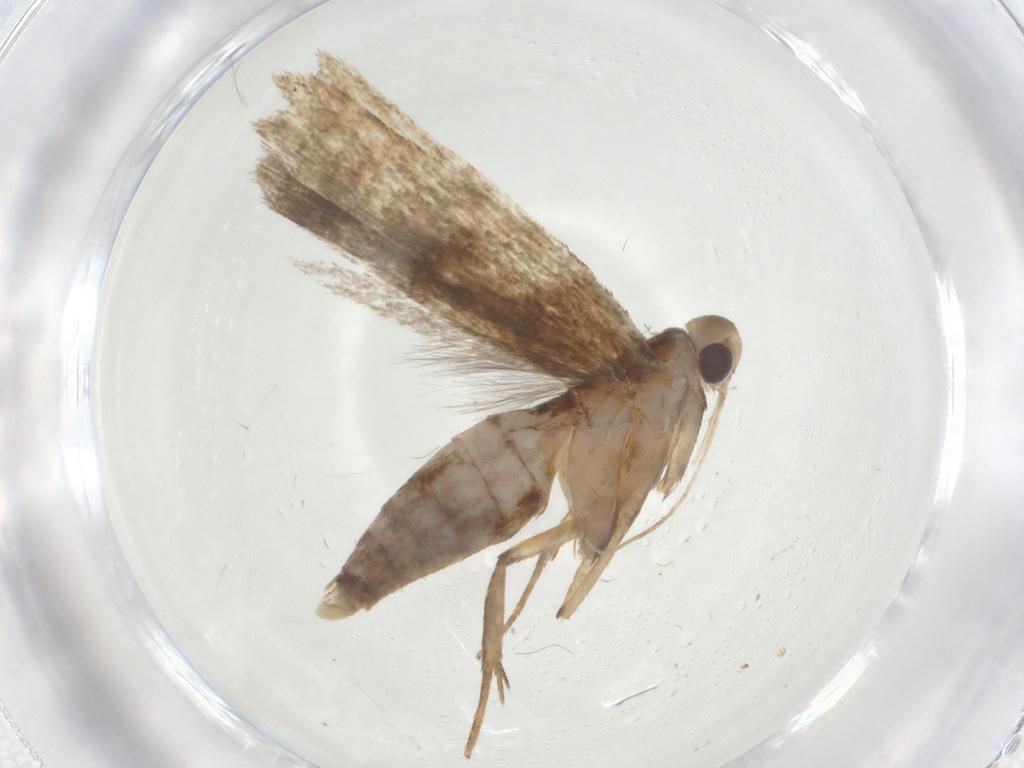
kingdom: Animalia
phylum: Arthropoda
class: Insecta
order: Lepidoptera
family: Gelechiidae
